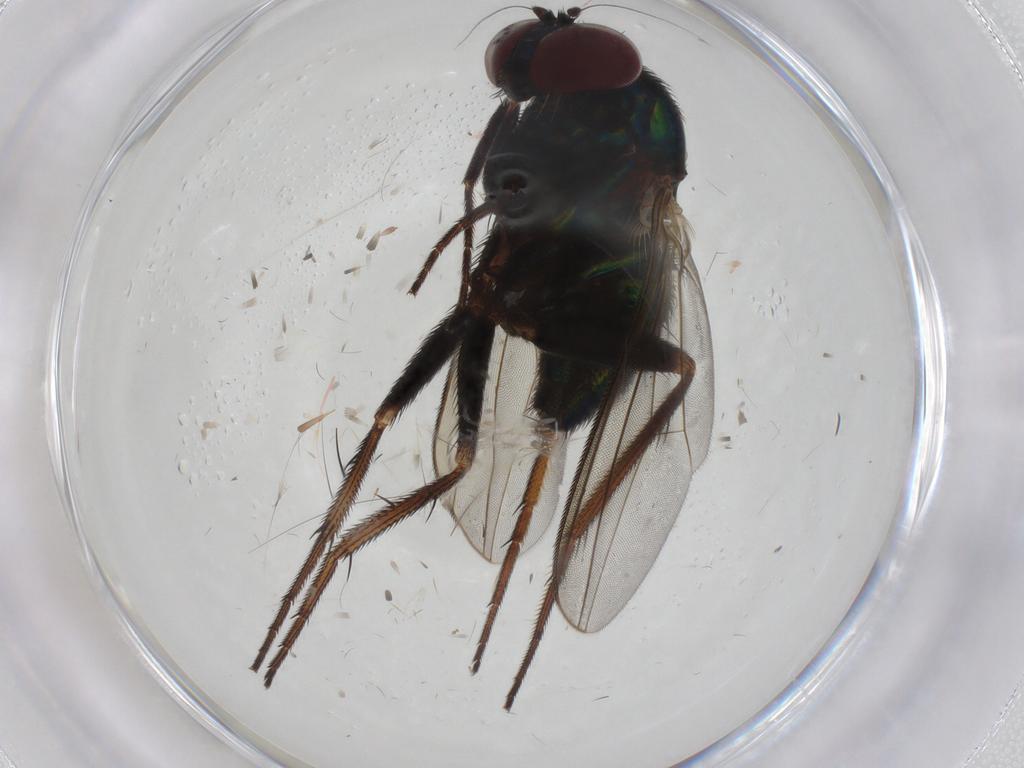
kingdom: Animalia
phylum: Arthropoda
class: Insecta
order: Diptera
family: Dolichopodidae
